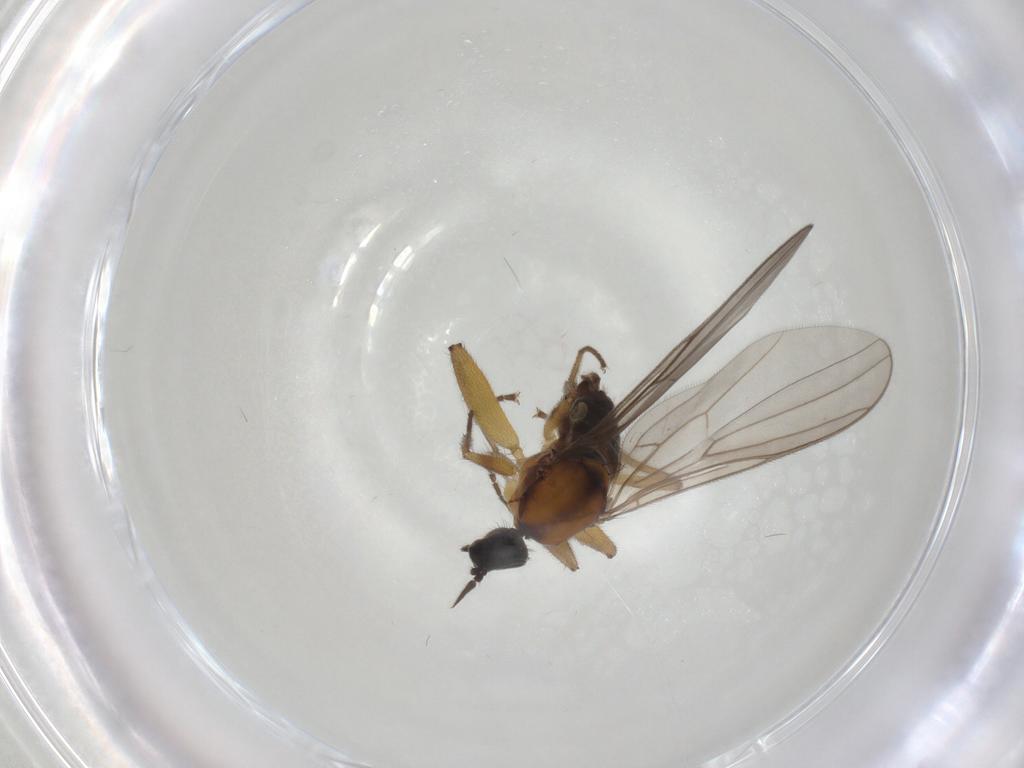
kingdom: Animalia
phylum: Arthropoda
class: Insecta
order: Diptera
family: Hybotidae
